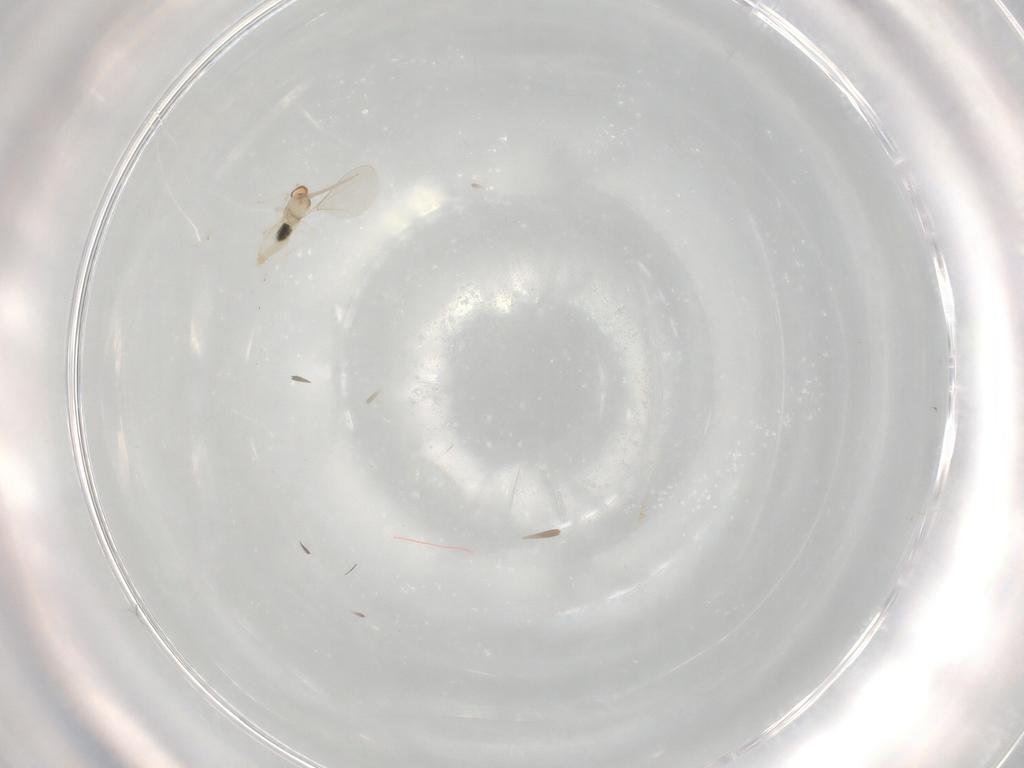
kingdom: Animalia
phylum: Arthropoda
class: Insecta
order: Diptera
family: Cecidomyiidae
